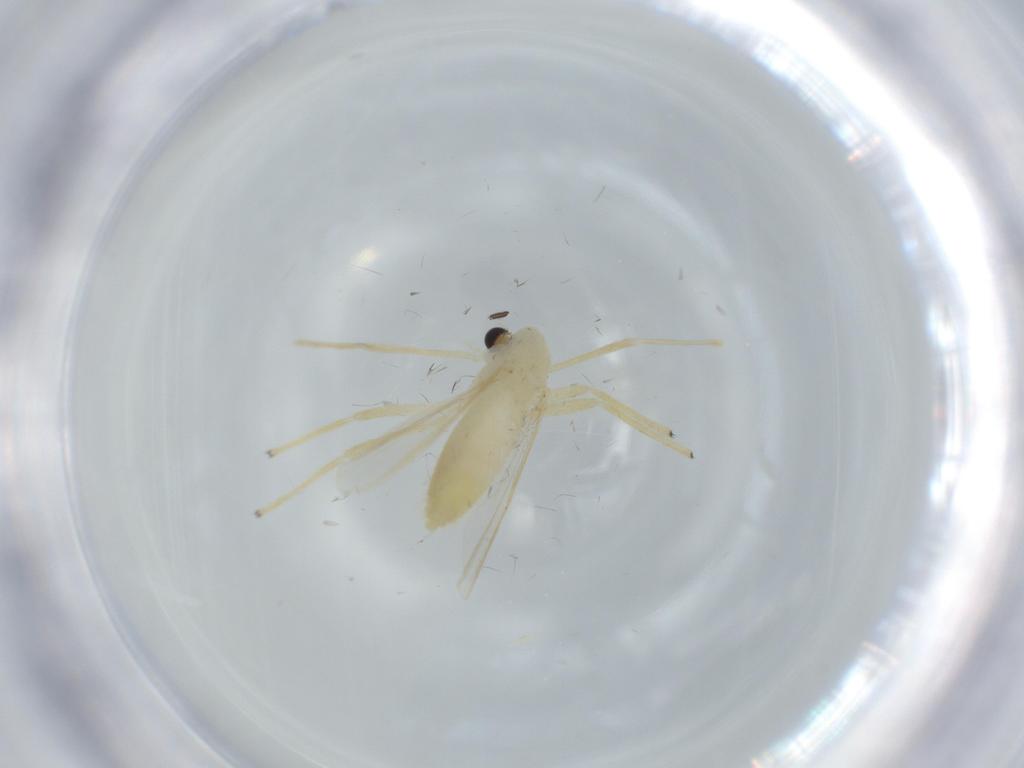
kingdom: Animalia
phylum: Arthropoda
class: Insecta
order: Diptera
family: Chironomidae
